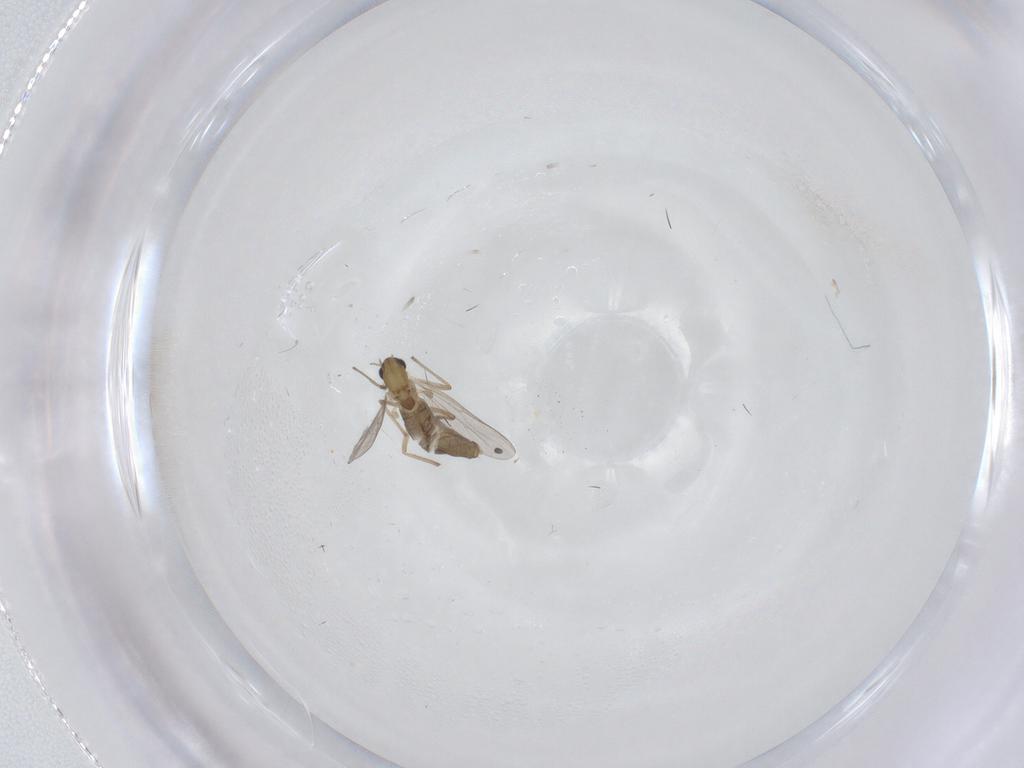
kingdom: Animalia
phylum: Arthropoda
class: Insecta
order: Diptera
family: Chironomidae
